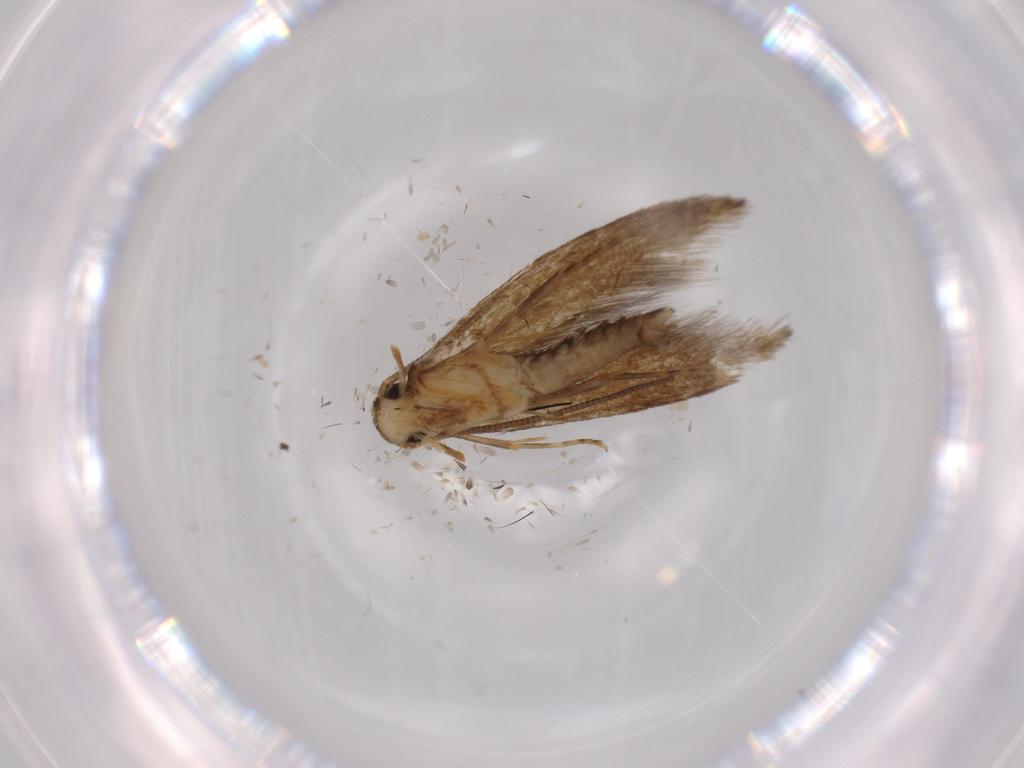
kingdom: Animalia
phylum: Arthropoda
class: Insecta
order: Lepidoptera
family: Tineidae
